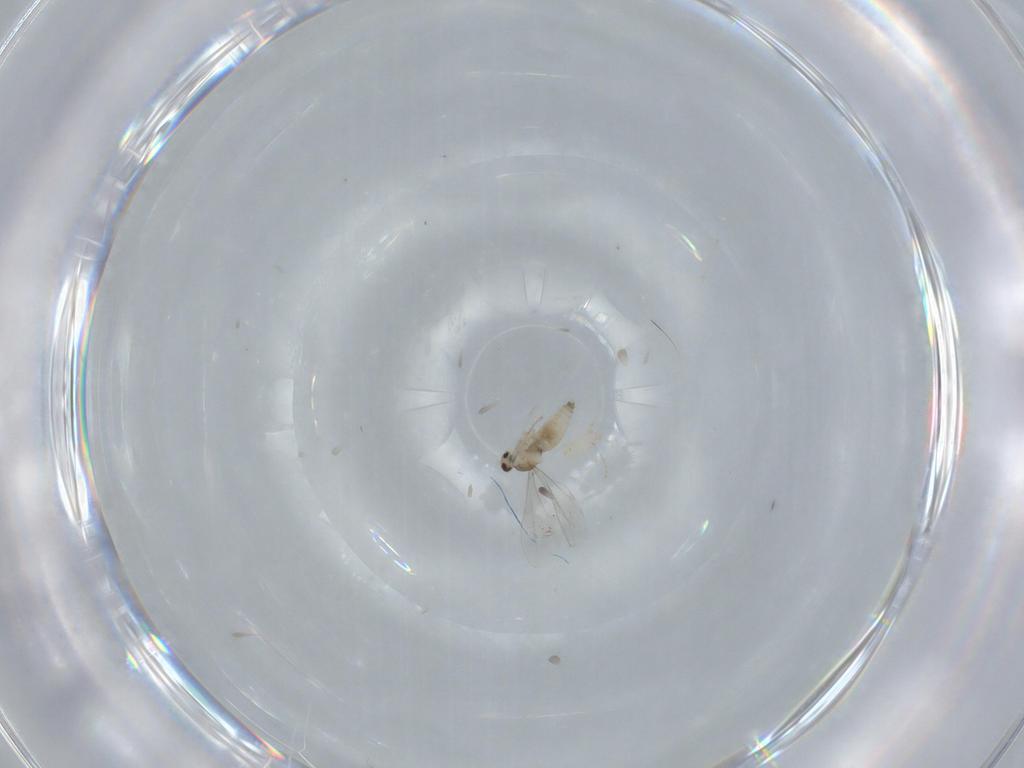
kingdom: Animalia
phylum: Arthropoda
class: Insecta
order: Diptera
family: Cecidomyiidae
